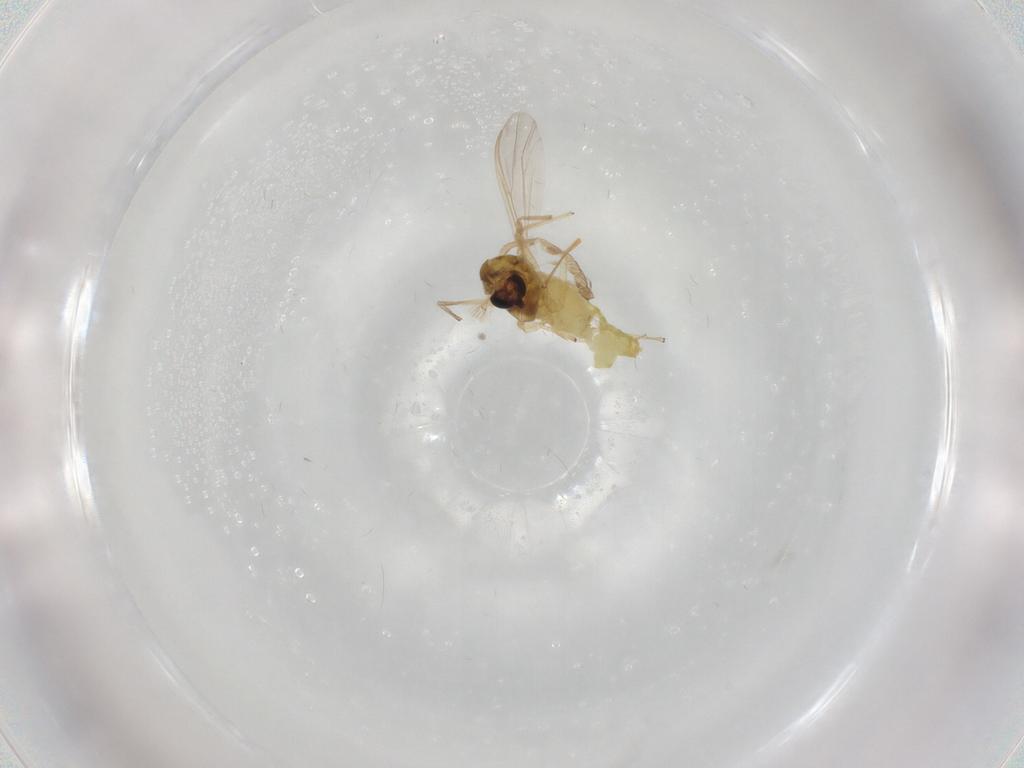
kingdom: Animalia
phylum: Arthropoda
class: Insecta
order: Diptera
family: Chironomidae
